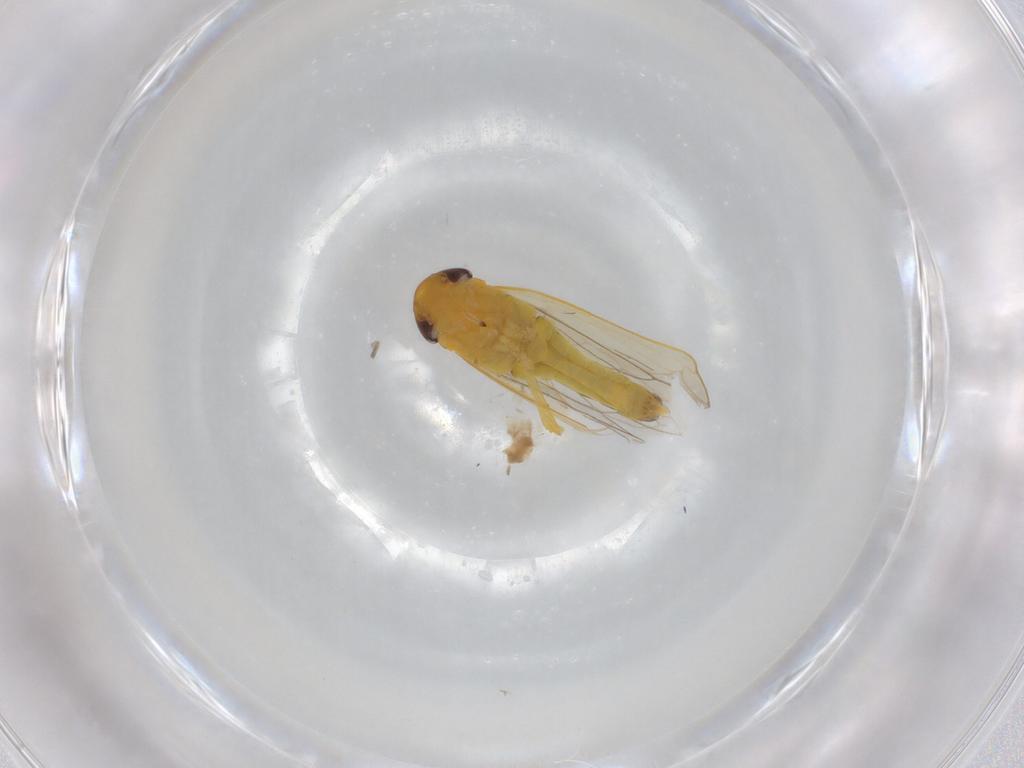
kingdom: Animalia
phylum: Arthropoda
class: Insecta
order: Hemiptera
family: Cicadellidae
